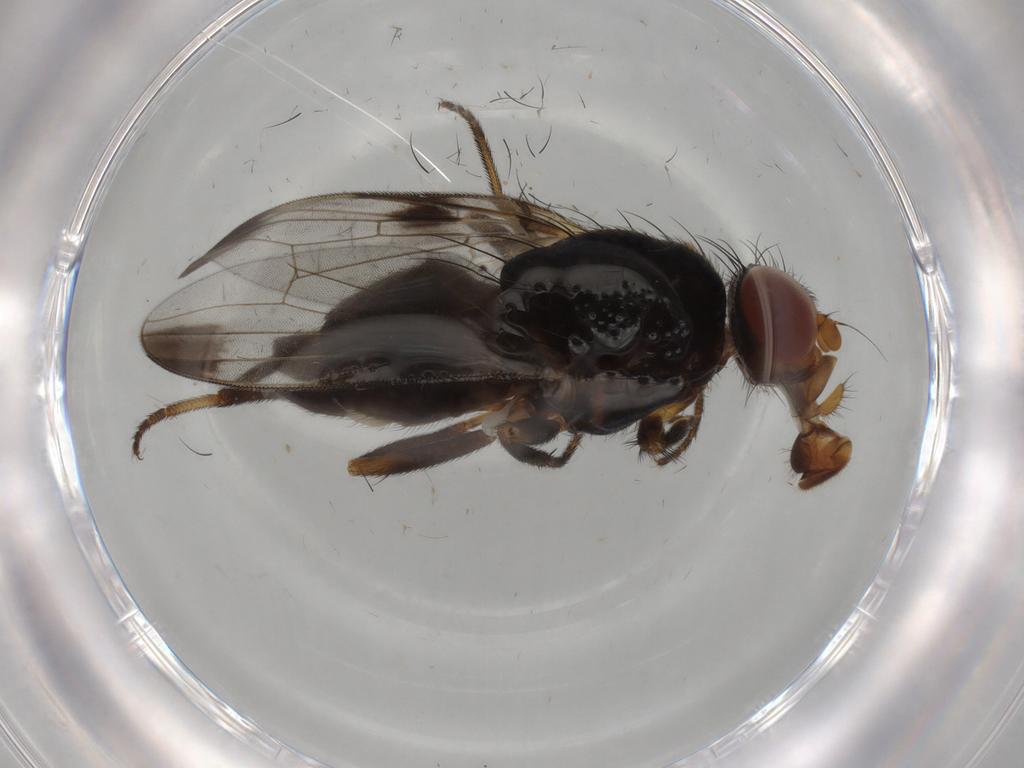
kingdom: Animalia
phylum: Arthropoda
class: Insecta
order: Diptera
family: Ulidiidae
